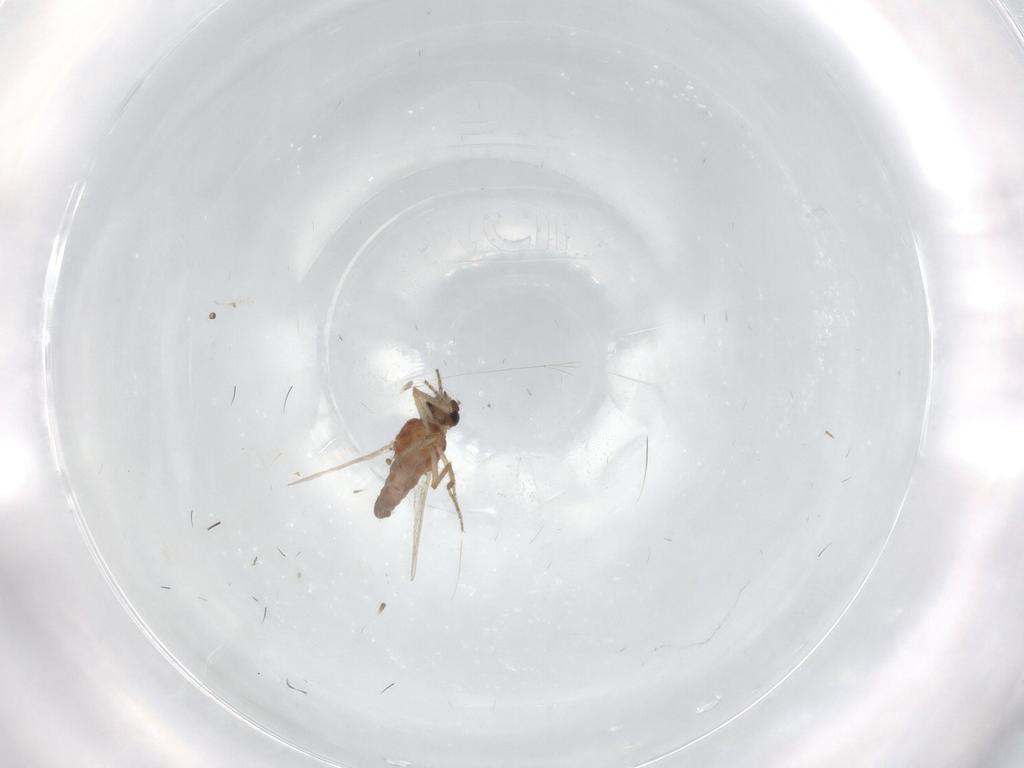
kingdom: Animalia
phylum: Arthropoda
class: Insecta
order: Diptera
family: Ceratopogonidae
